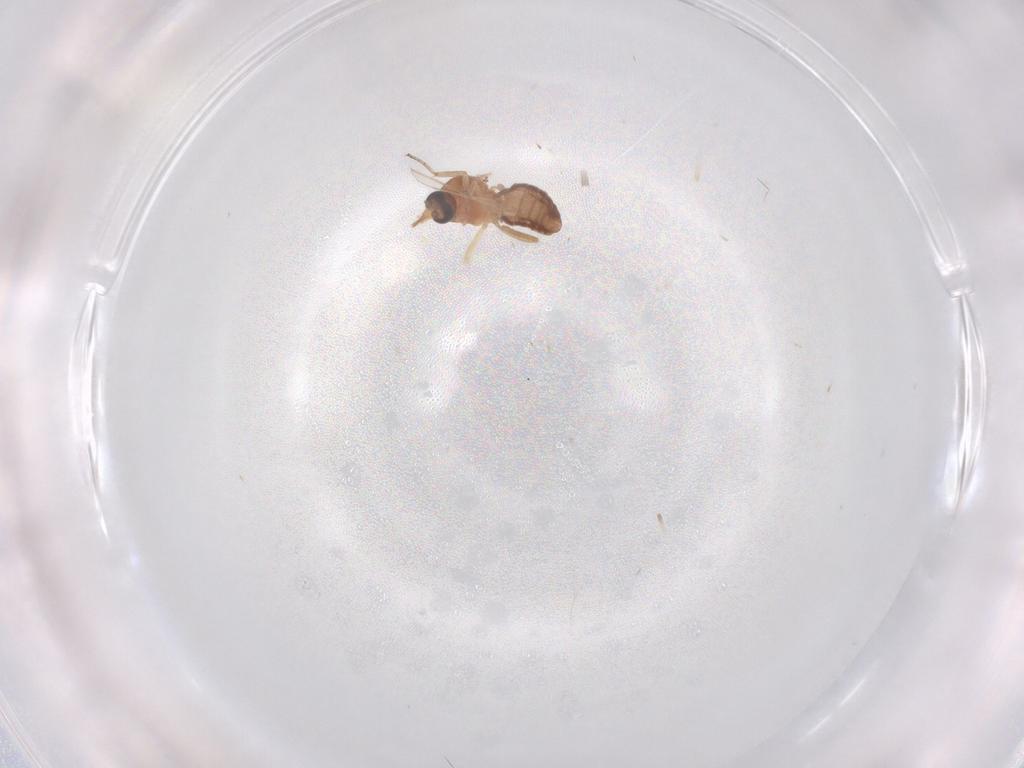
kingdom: Animalia
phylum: Arthropoda
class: Insecta
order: Diptera
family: Ceratopogonidae
